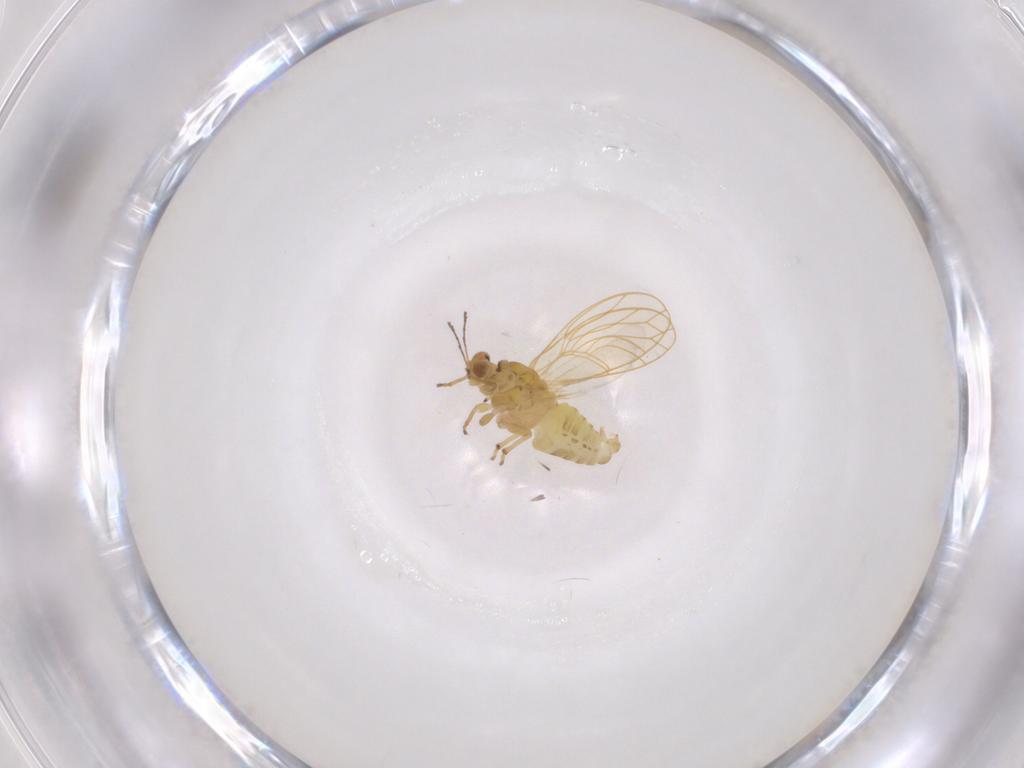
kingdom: Animalia
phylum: Arthropoda
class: Insecta
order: Hemiptera
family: Psylloidea_incertae_sedis
